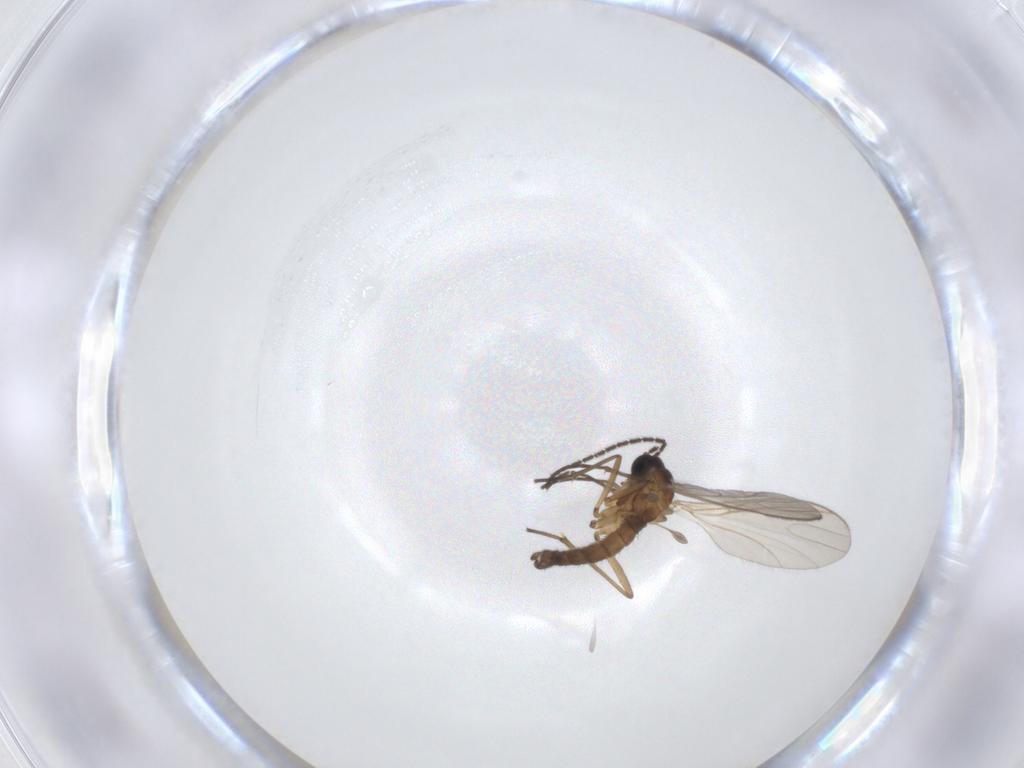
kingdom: Animalia
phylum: Arthropoda
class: Insecta
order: Diptera
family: Sciaridae
